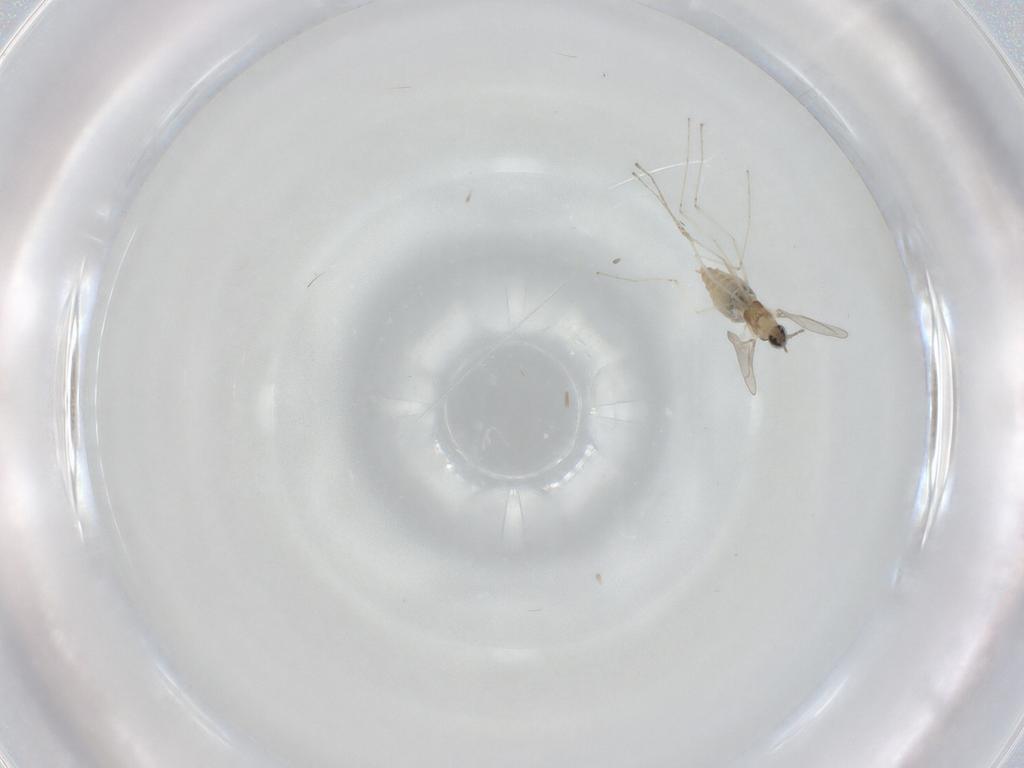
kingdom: Animalia
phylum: Arthropoda
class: Insecta
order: Diptera
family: Cecidomyiidae
